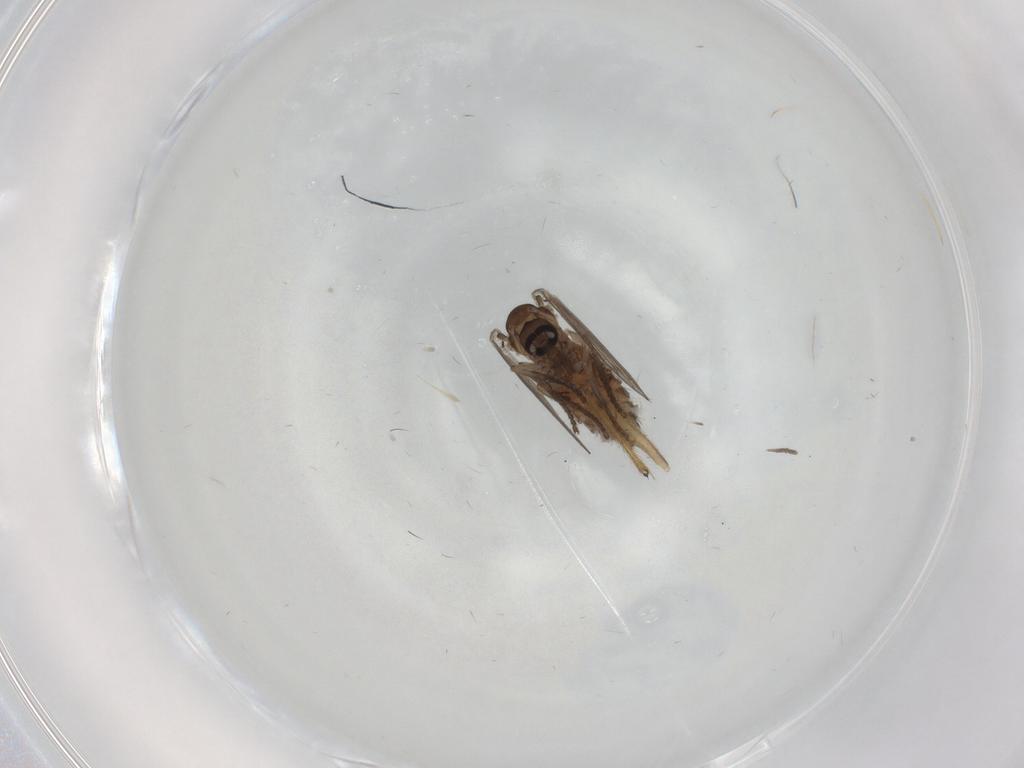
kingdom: Animalia
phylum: Arthropoda
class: Insecta
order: Diptera
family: Chironomidae
